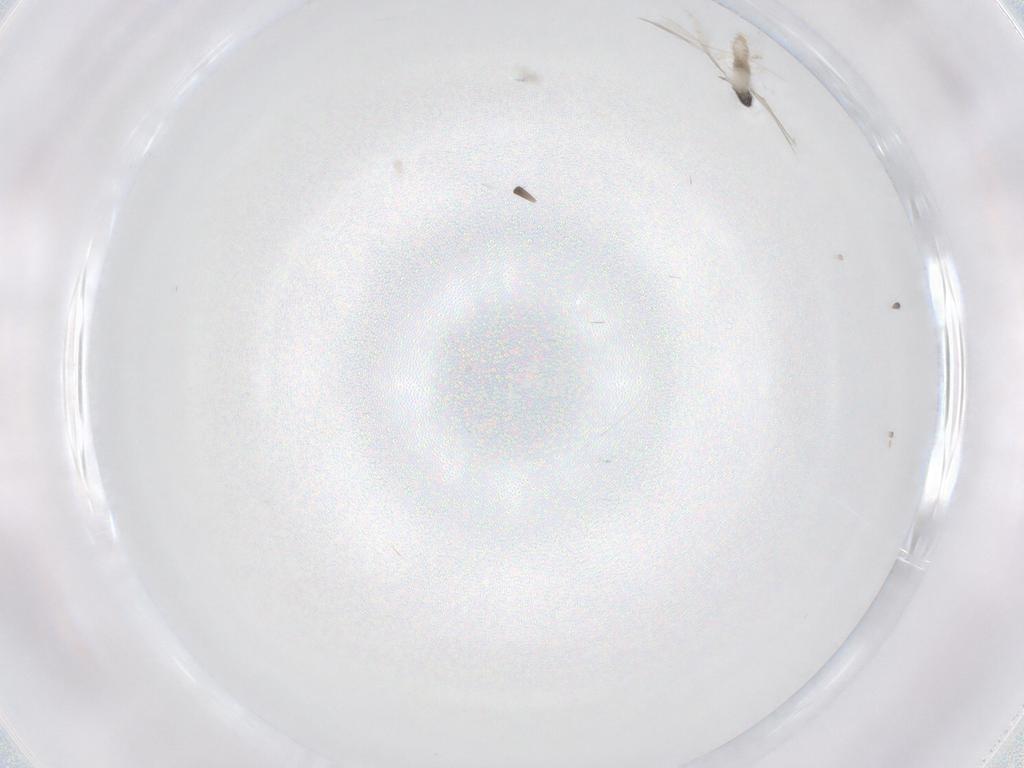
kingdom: Animalia
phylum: Arthropoda
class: Insecta
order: Diptera
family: Cecidomyiidae
